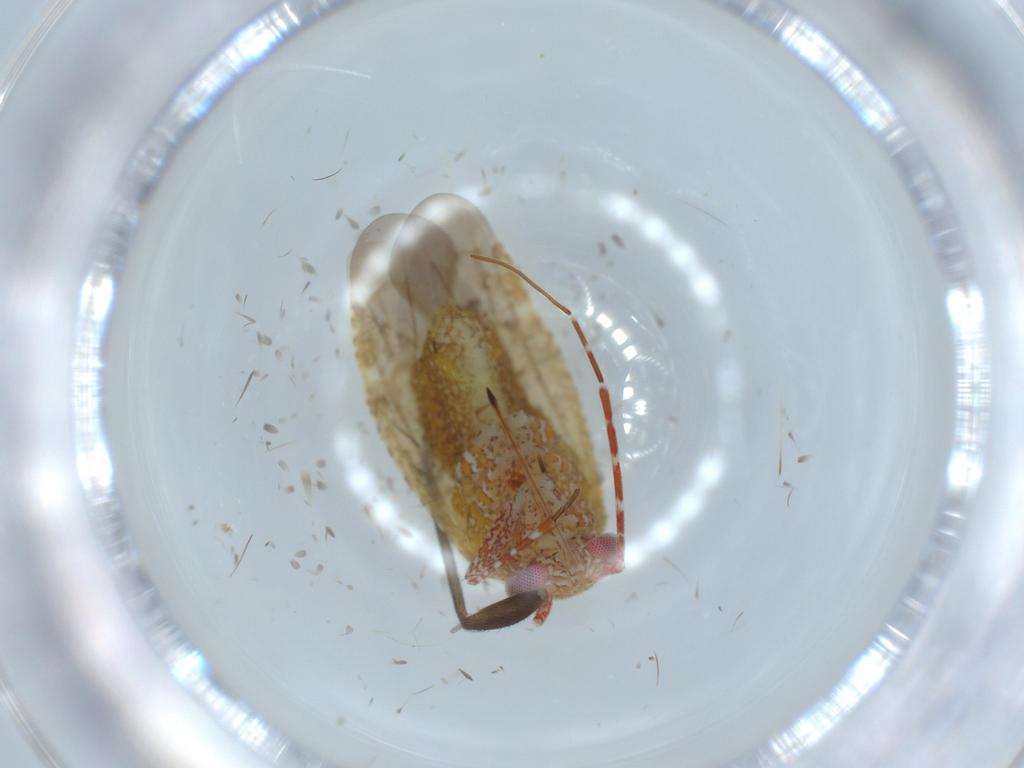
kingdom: Animalia
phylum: Arthropoda
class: Insecta
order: Hemiptera
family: Miridae
